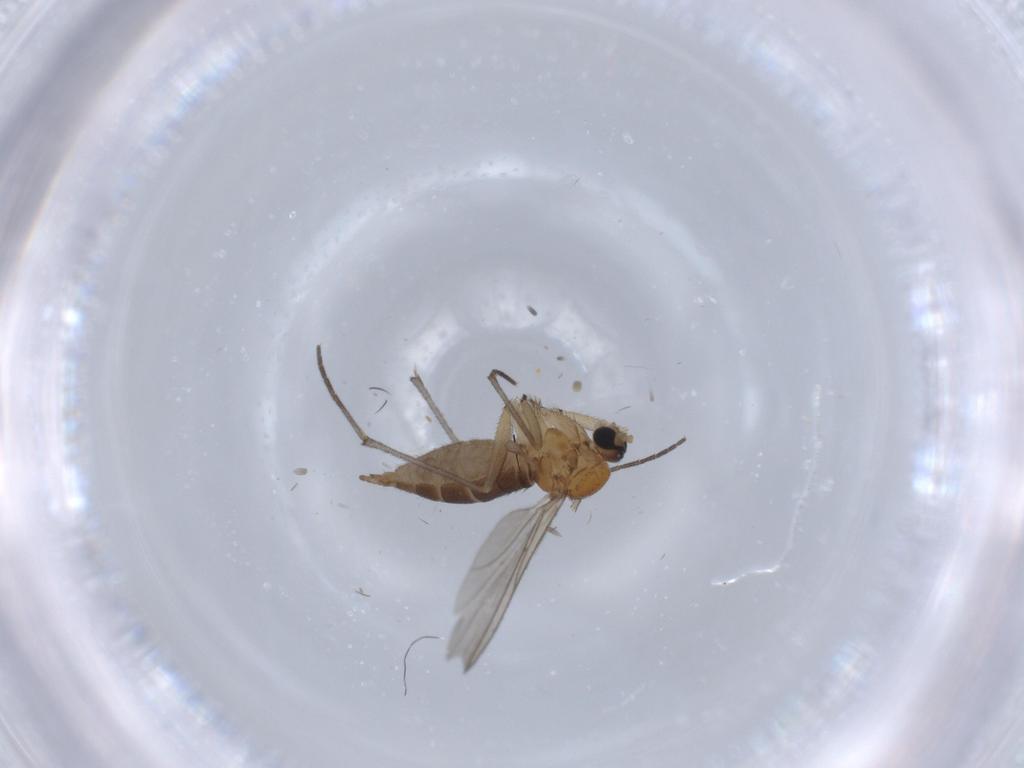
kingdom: Animalia
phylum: Arthropoda
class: Insecta
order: Diptera
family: Sciaridae
